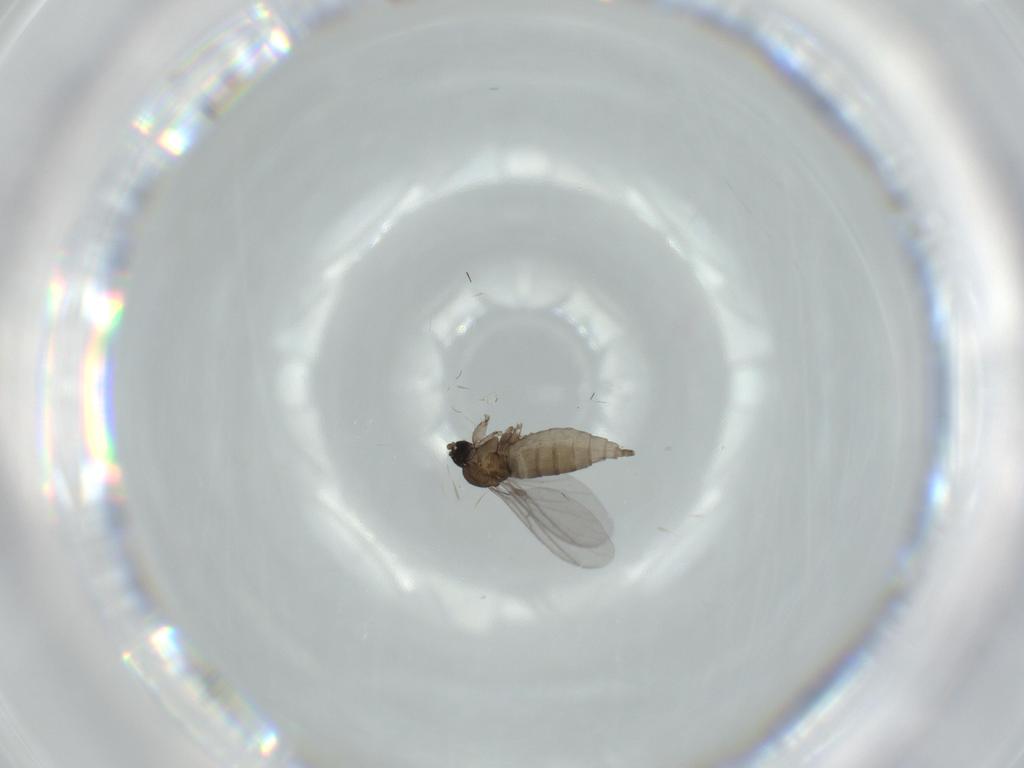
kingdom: Animalia
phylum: Arthropoda
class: Insecta
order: Diptera
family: Sciaridae
